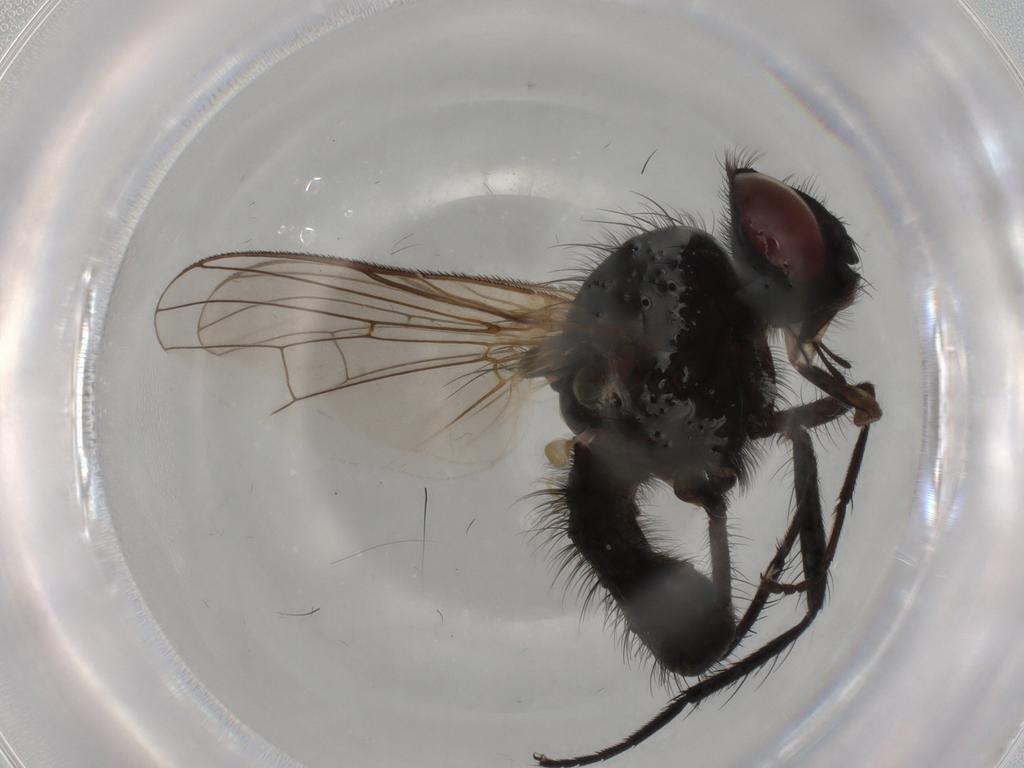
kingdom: Animalia
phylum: Arthropoda
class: Insecta
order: Diptera
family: Anthomyiidae
